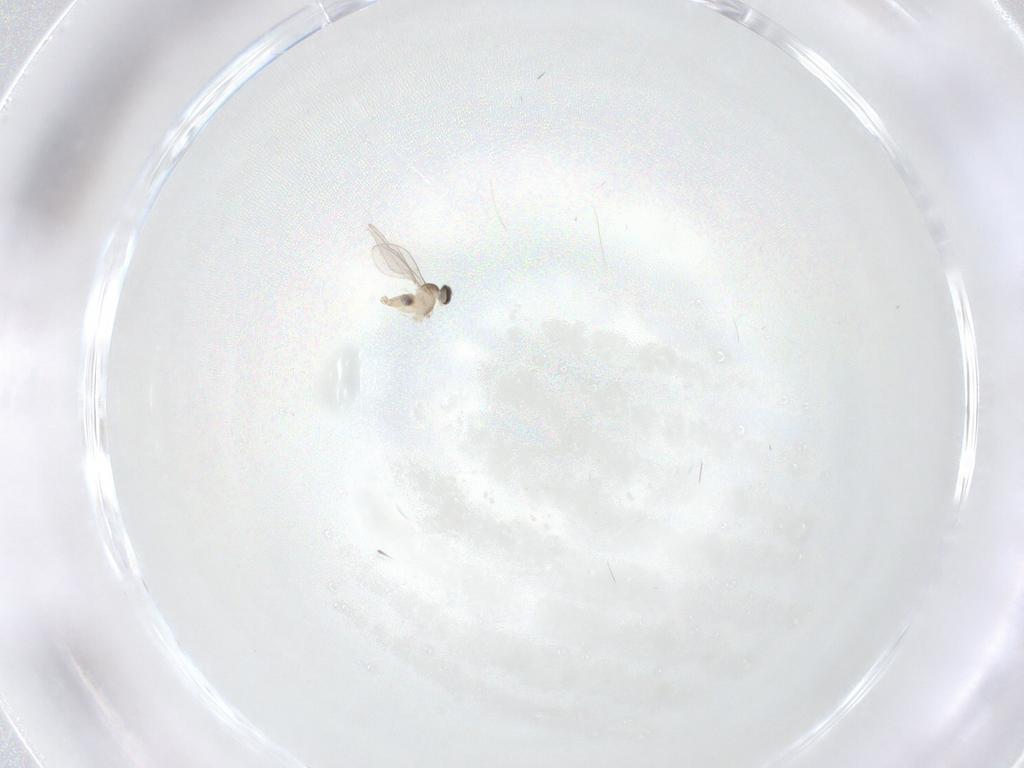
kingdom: Animalia
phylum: Arthropoda
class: Insecta
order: Diptera
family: Cecidomyiidae
